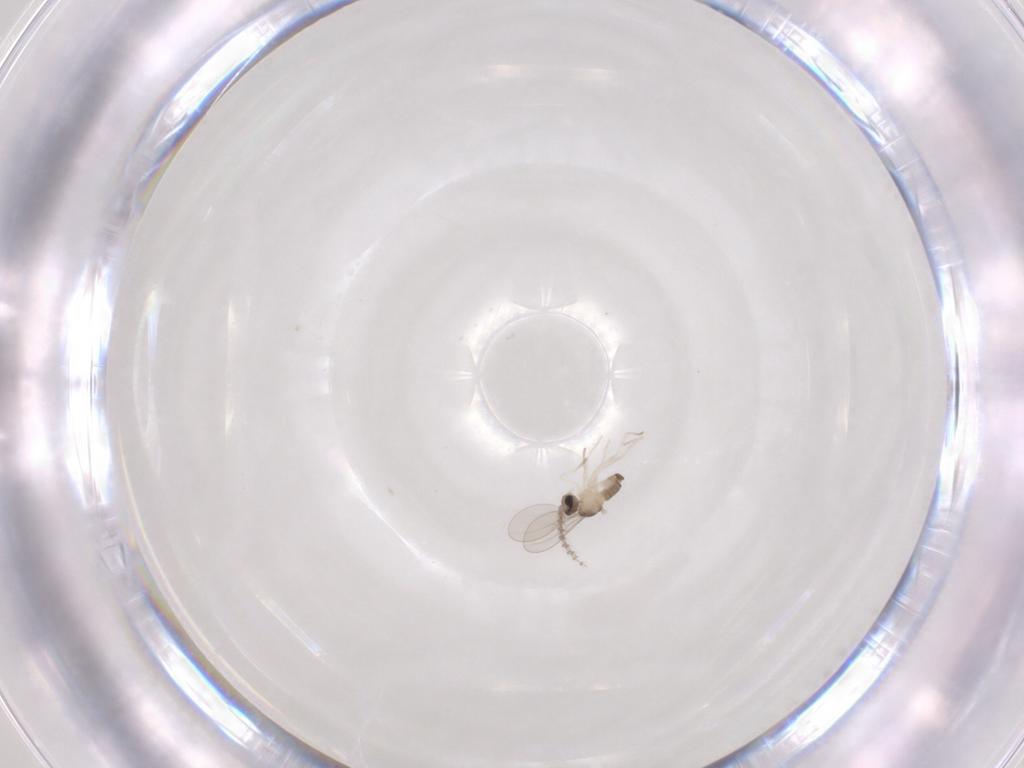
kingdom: Animalia
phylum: Arthropoda
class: Insecta
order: Diptera
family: Cecidomyiidae
